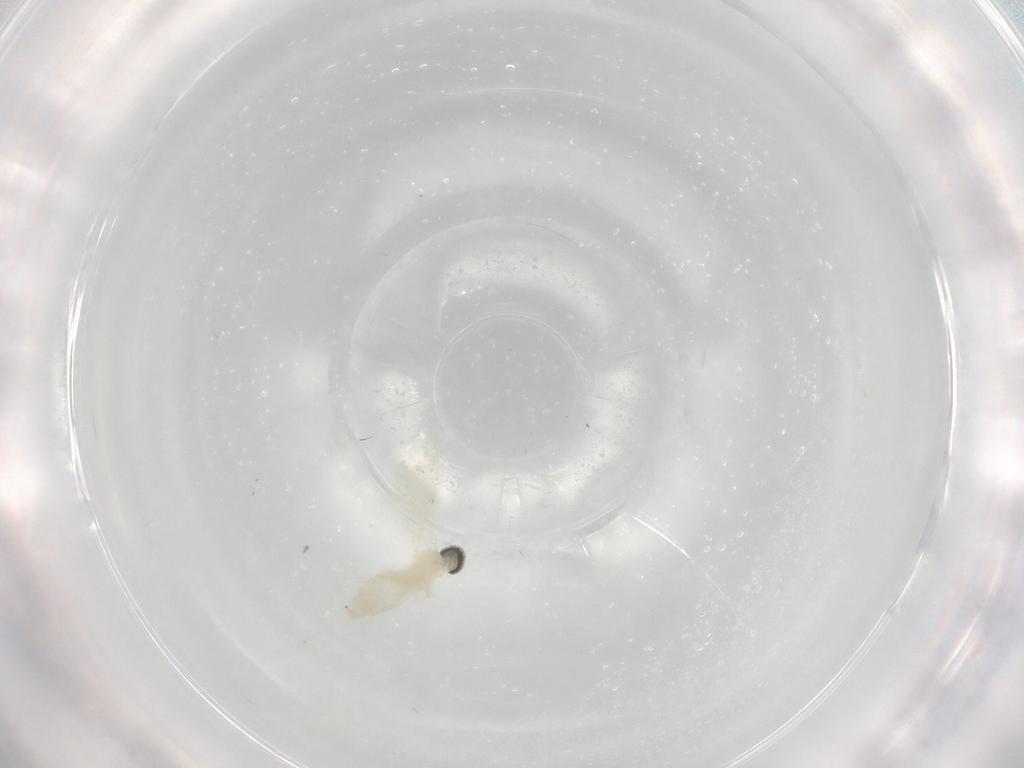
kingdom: Animalia
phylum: Arthropoda
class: Insecta
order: Diptera
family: Cecidomyiidae
